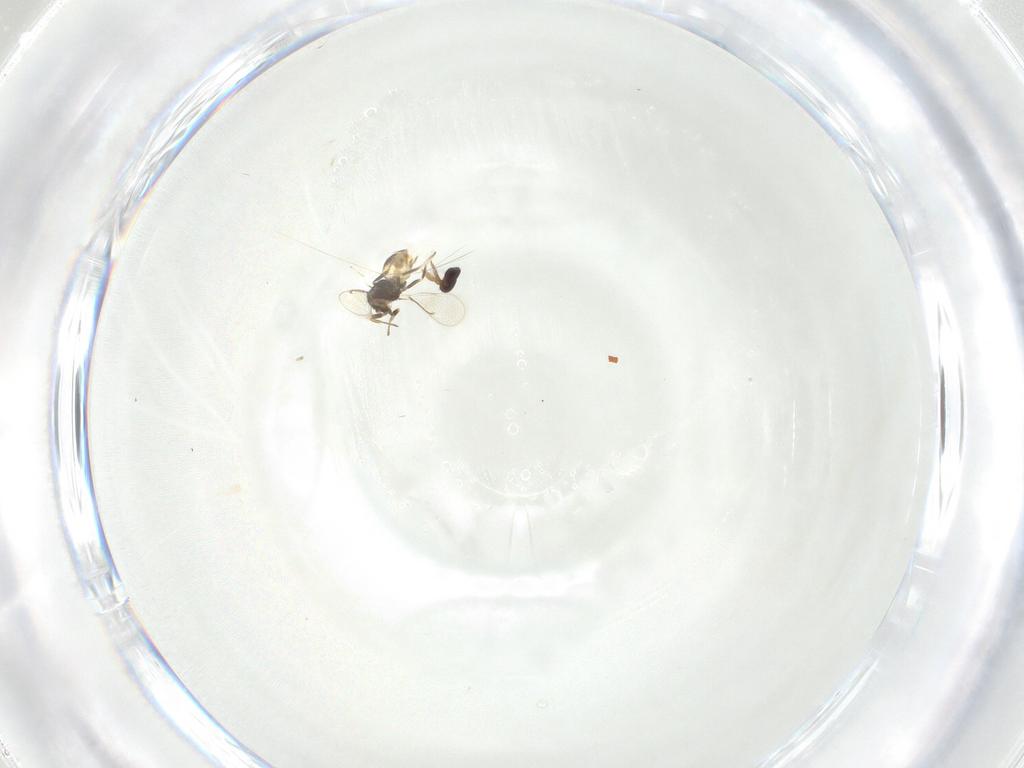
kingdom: Animalia
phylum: Arthropoda
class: Insecta
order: Hymenoptera
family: Eulophidae
